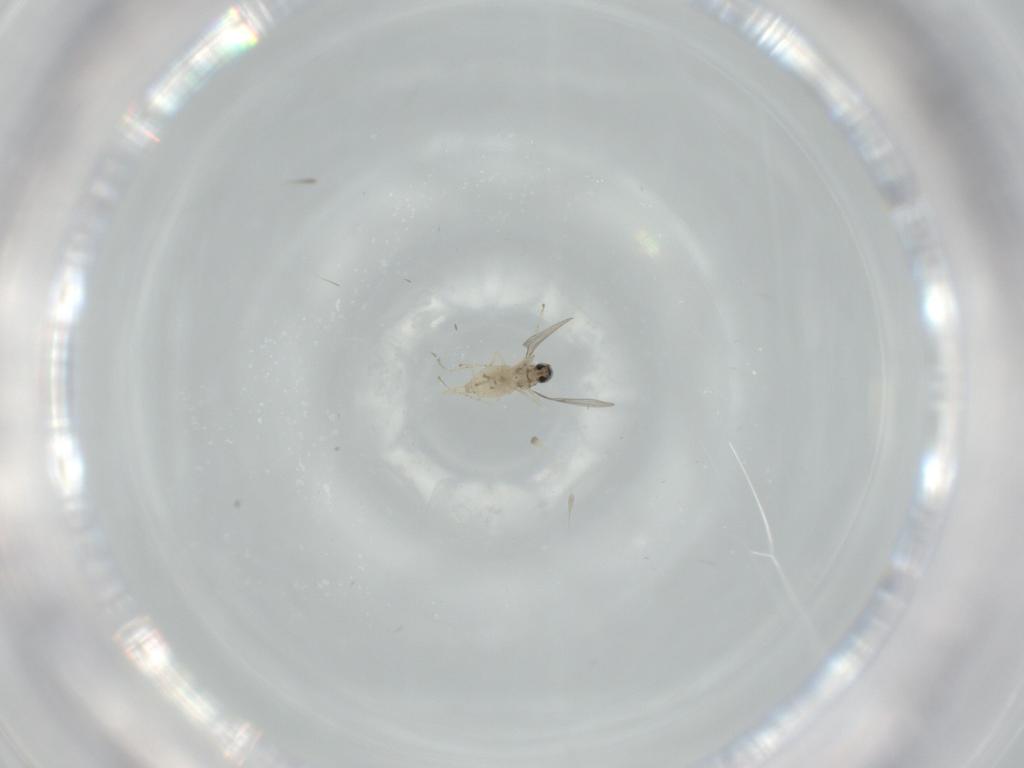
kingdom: Animalia
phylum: Arthropoda
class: Insecta
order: Diptera
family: Cecidomyiidae
